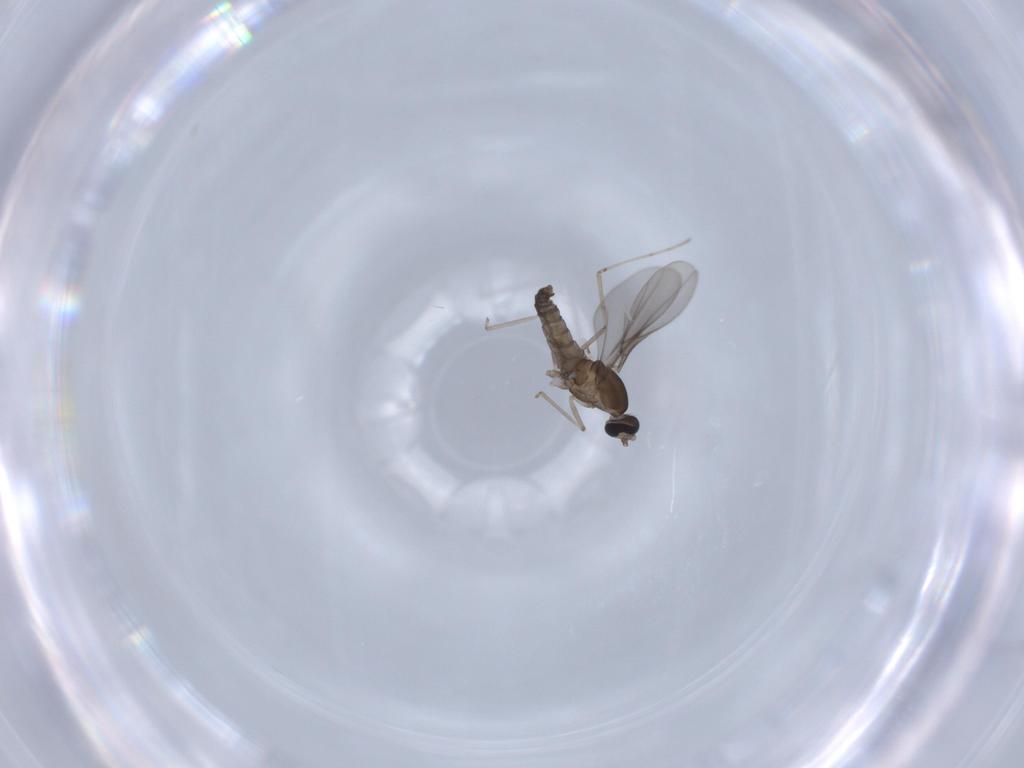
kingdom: Animalia
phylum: Arthropoda
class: Insecta
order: Diptera
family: Cecidomyiidae
